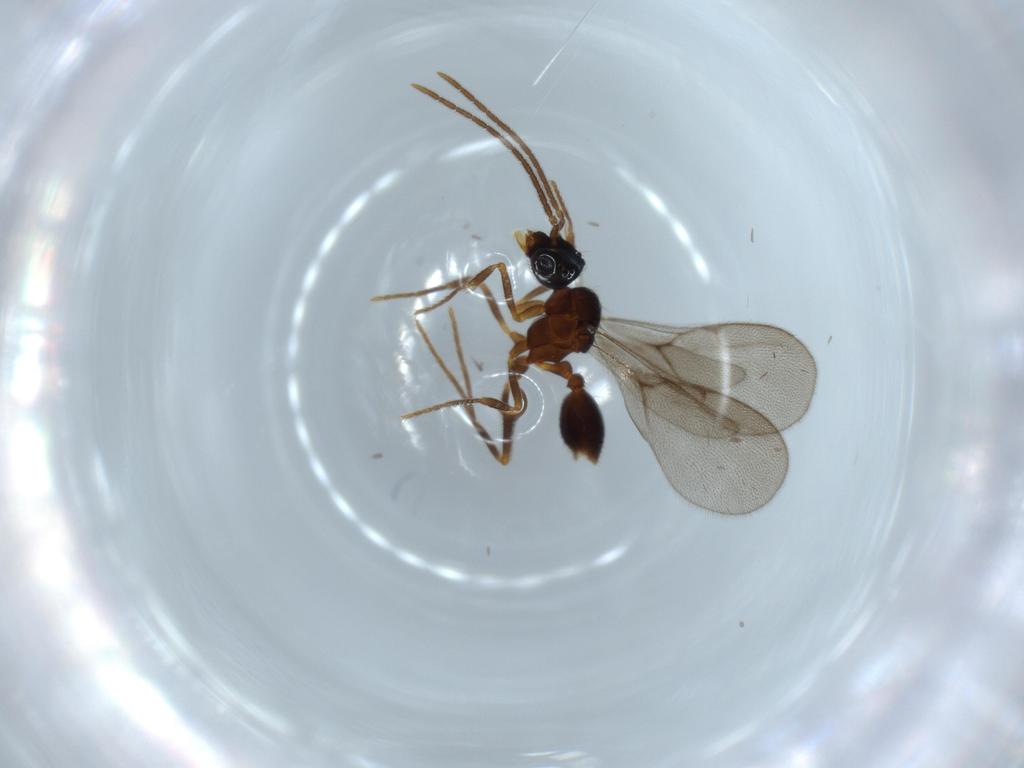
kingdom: Animalia
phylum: Arthropoda
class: Insecta
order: Hymenoptera
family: Formicidae
